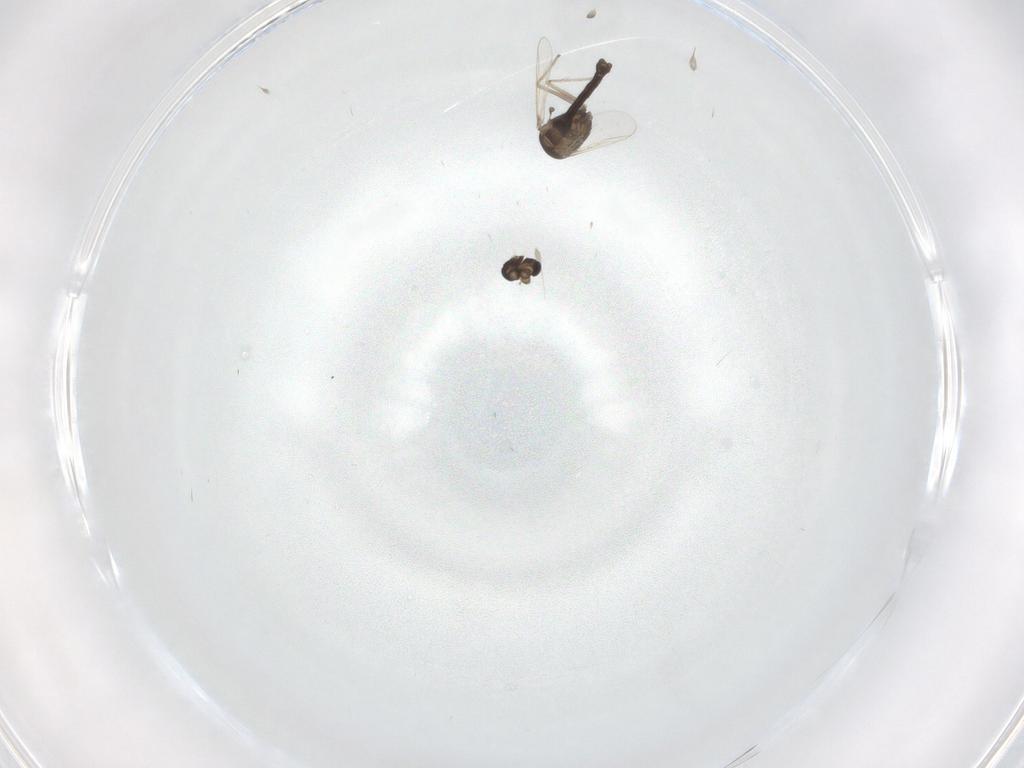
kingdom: Animalia
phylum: Arthropoda
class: Insecta
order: Diptera
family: Chironomidae
